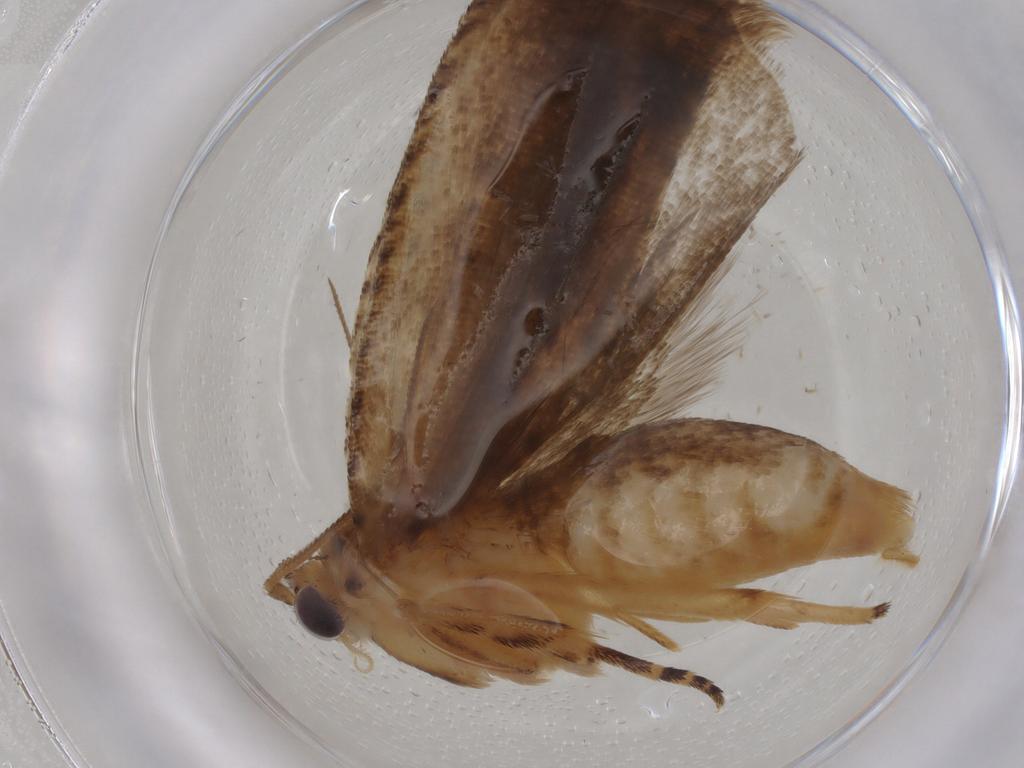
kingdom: Animalia
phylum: Arthropoda
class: Insecta
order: Lepidoptera
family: Tortricidae
